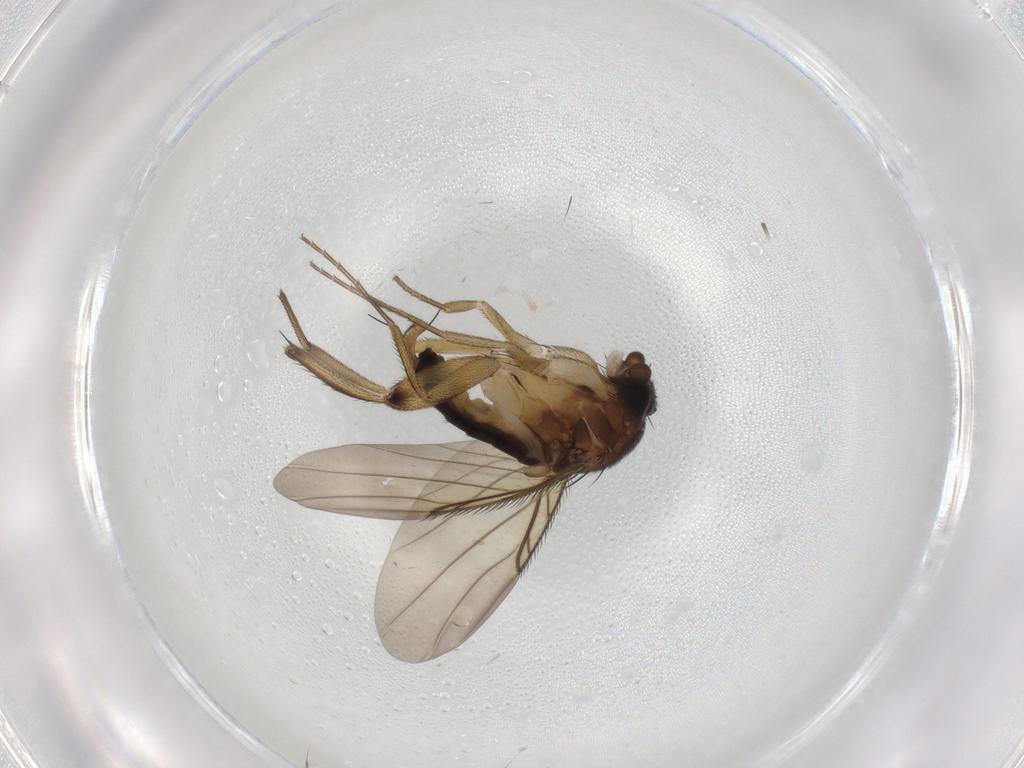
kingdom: Animalia
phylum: Arthropoda
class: Insecta
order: Diptera
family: Phoridae
